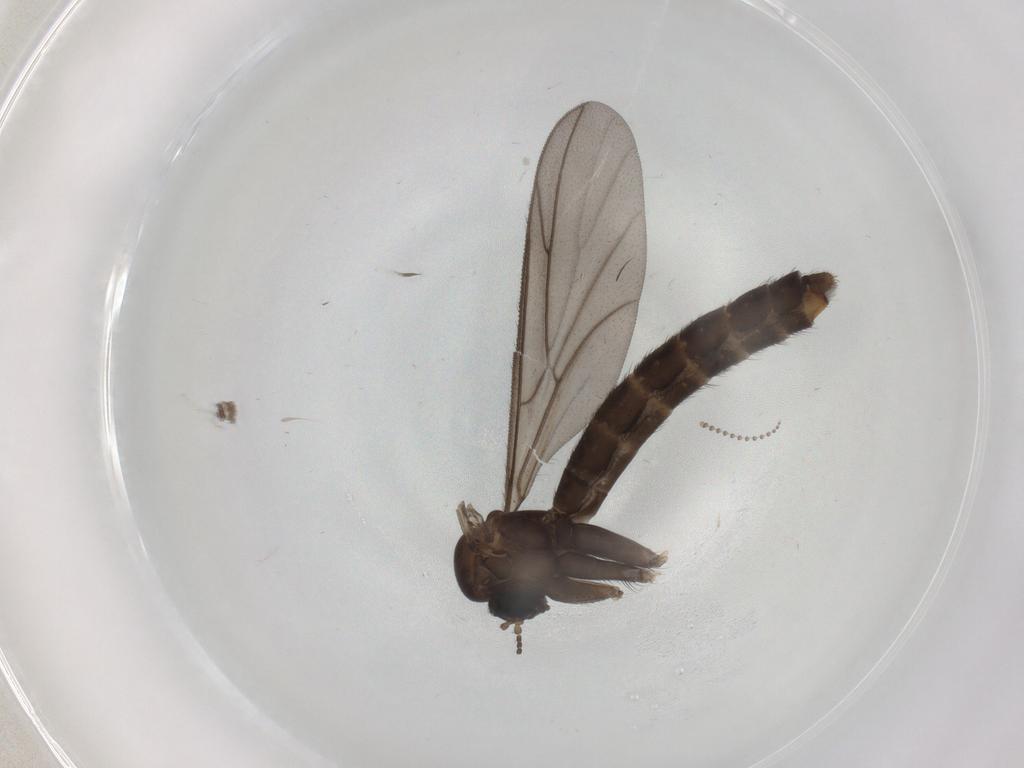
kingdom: Animalia
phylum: Arthropoda
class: Insecta
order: Diptera
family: Chironomidae
